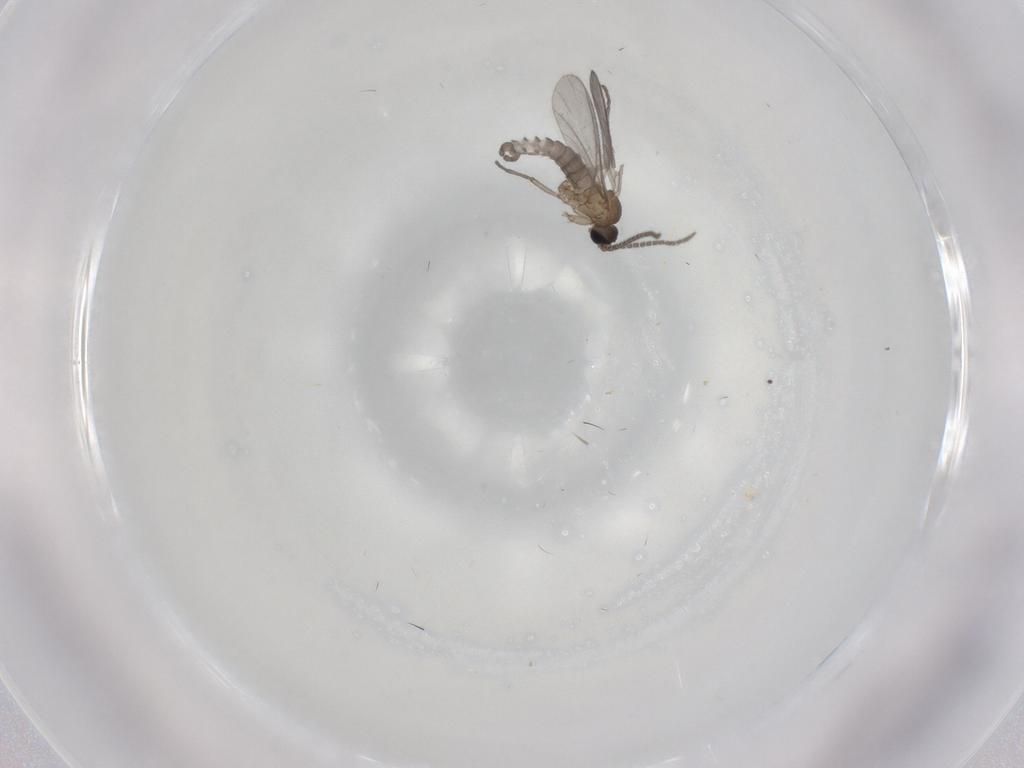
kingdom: Animalia
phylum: Arthropoda
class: Insecta
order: Diptera
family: Sciaridae
